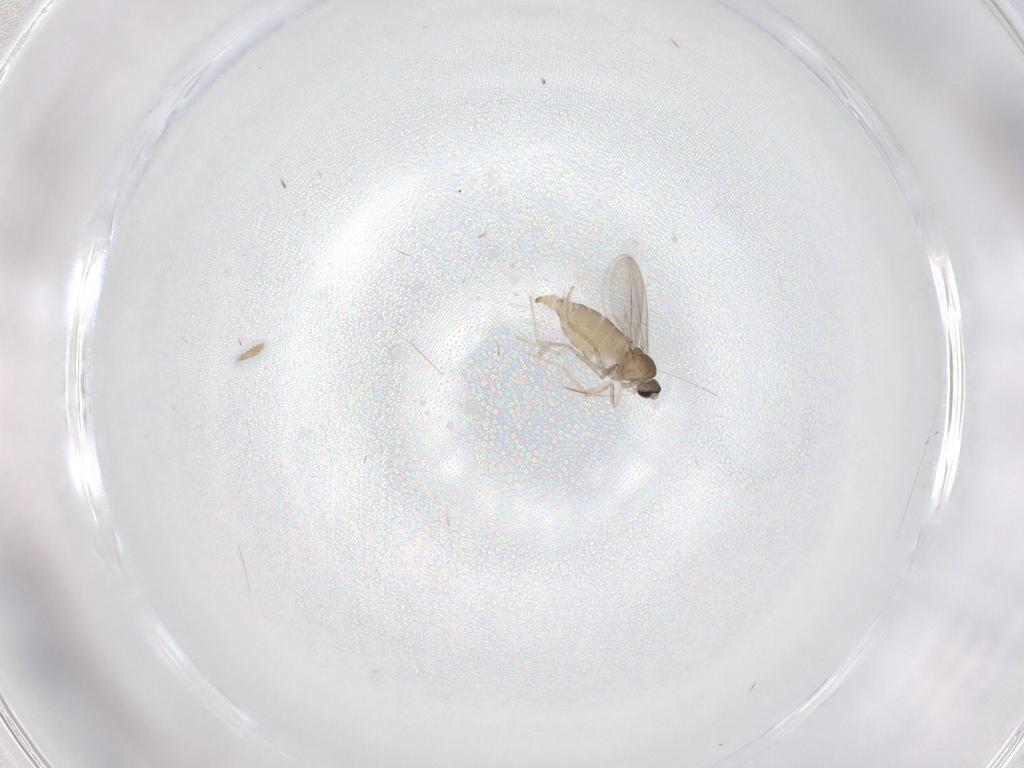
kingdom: Animalia
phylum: Arthropoda
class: Insecta
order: Diptera
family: Cecidomyiidae
